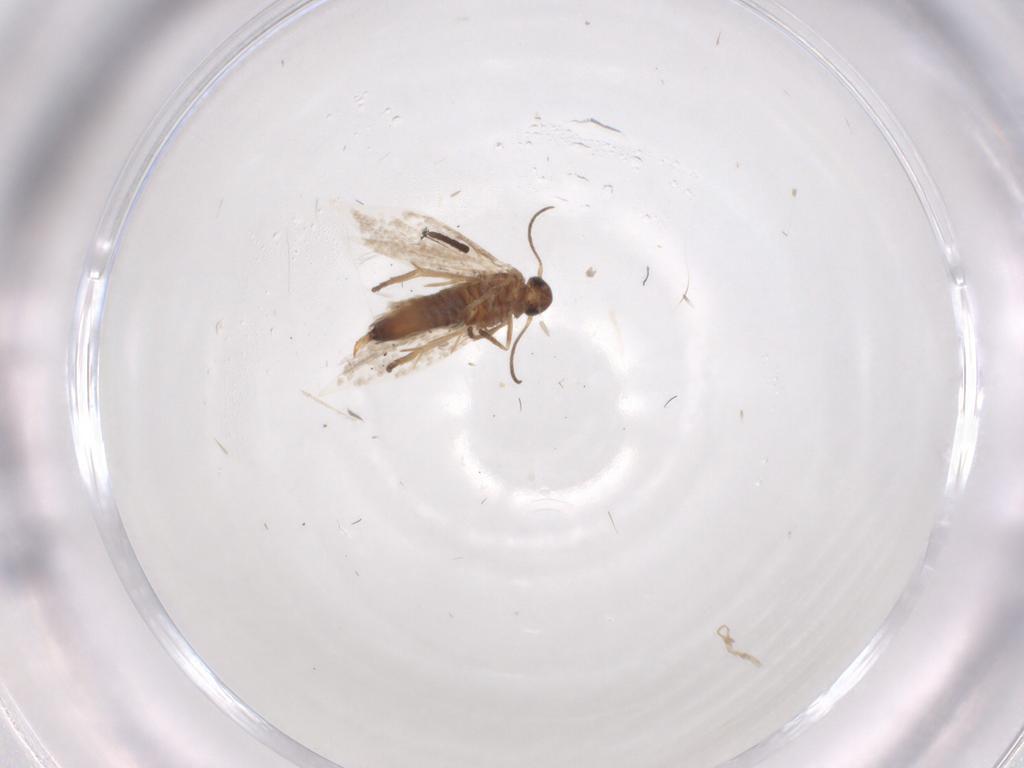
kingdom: Animalia
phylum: Arthropoda
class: Insecta
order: Lepidoptera
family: Heliozelidae
